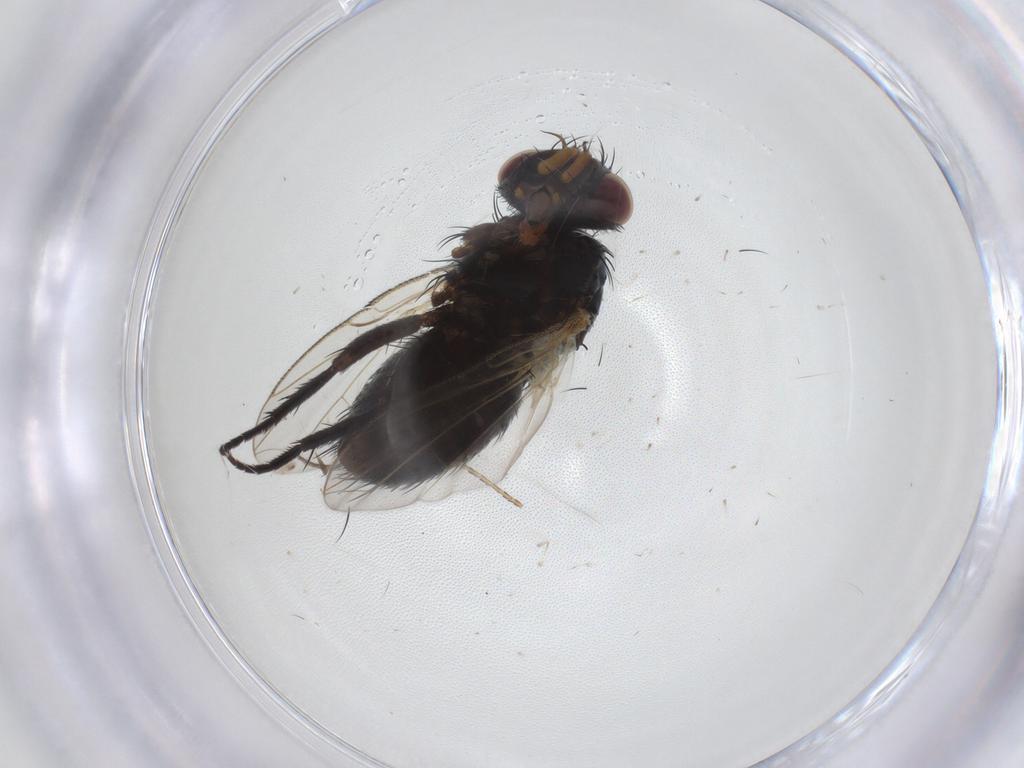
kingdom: Animalia
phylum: Arthropoda
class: Insecta
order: Diptera
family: Tachinidae
